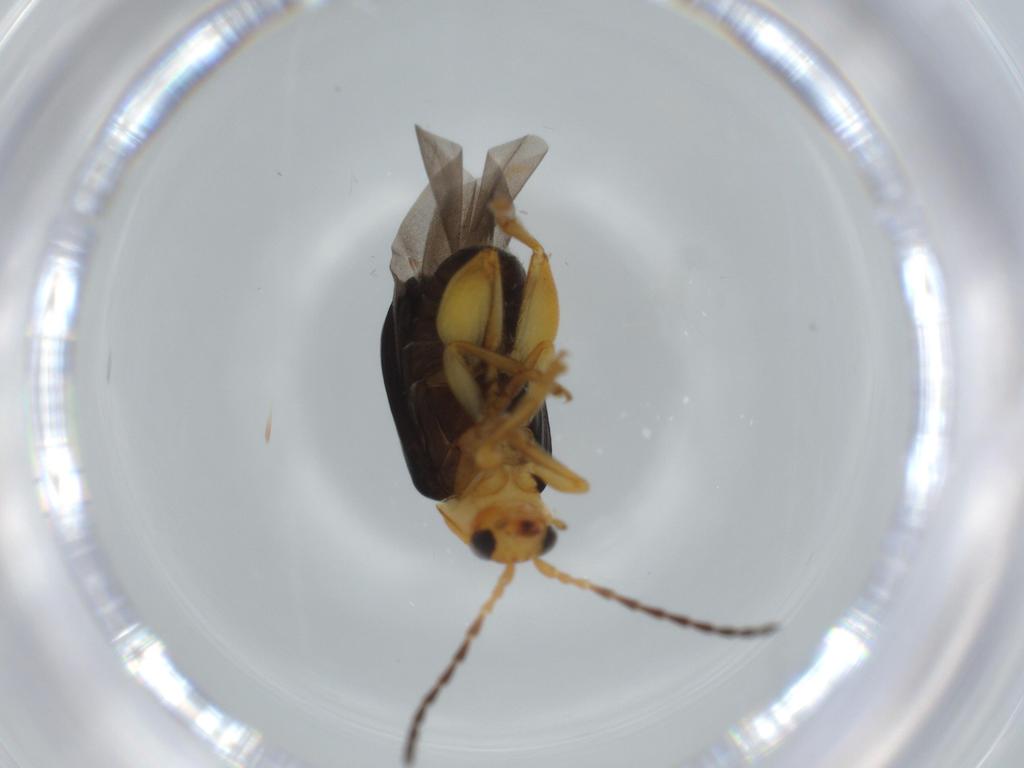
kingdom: Animalia
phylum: Arthropoda
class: Insecta
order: Coleoptera
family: Chrysomelidae
